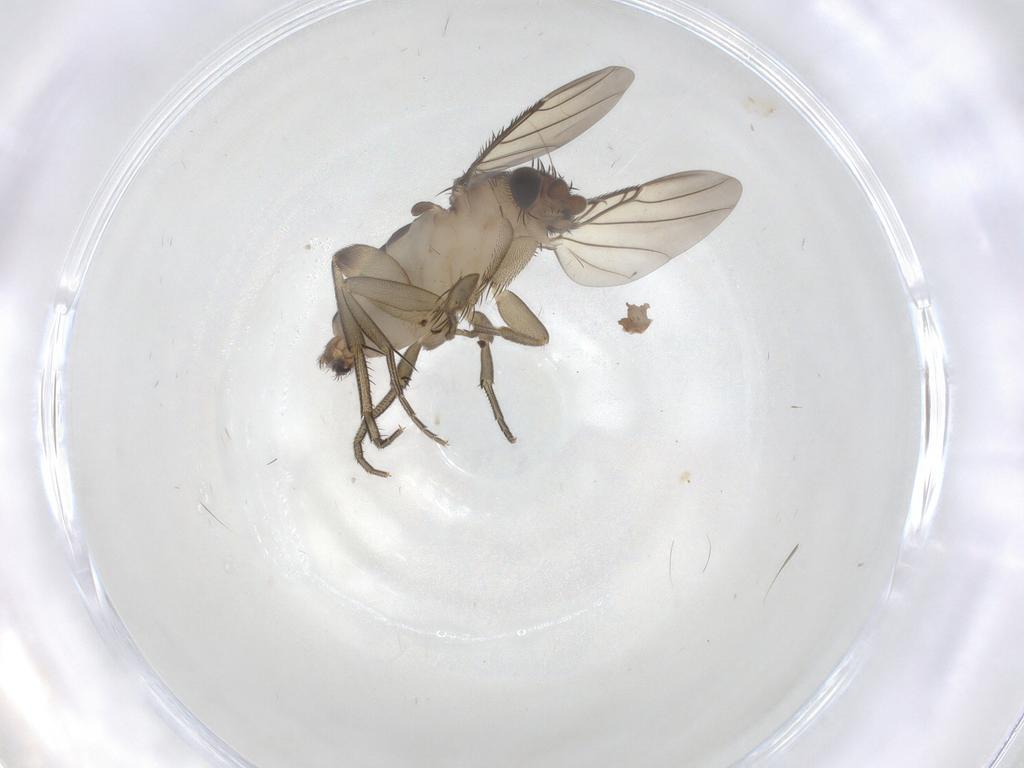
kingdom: Animalia
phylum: Arthropoda
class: Insecta
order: Diptera
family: Phoridae
